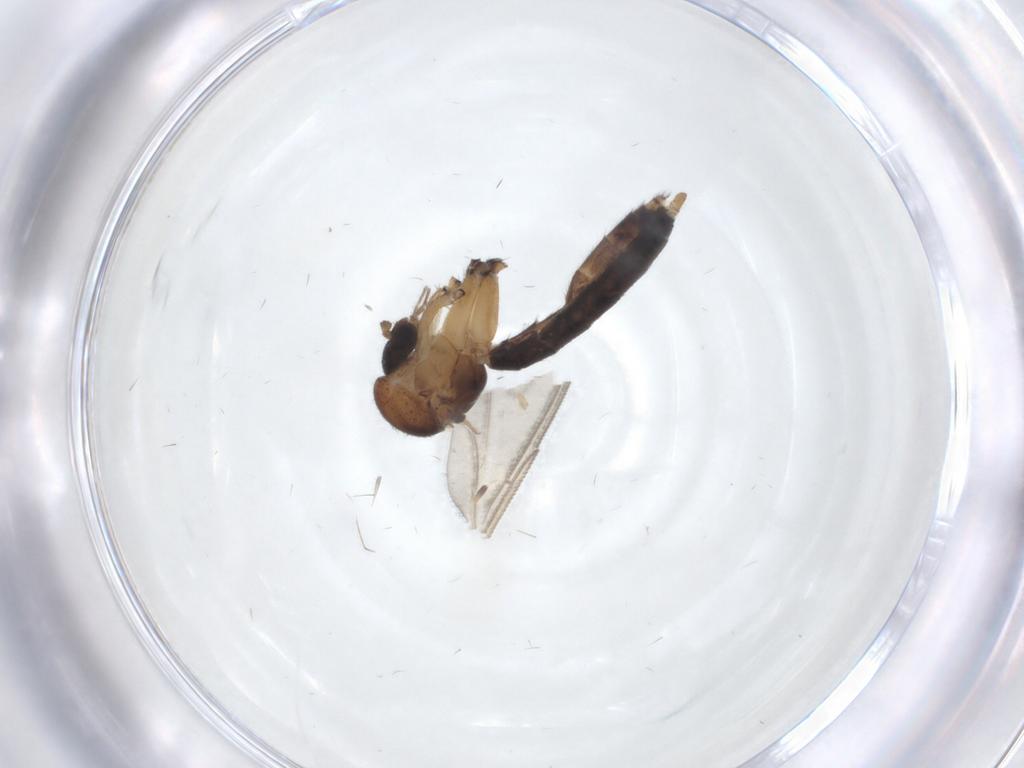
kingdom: Animalia
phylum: Arthropoda
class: Insecta
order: Diptera
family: Mycetophilidae
